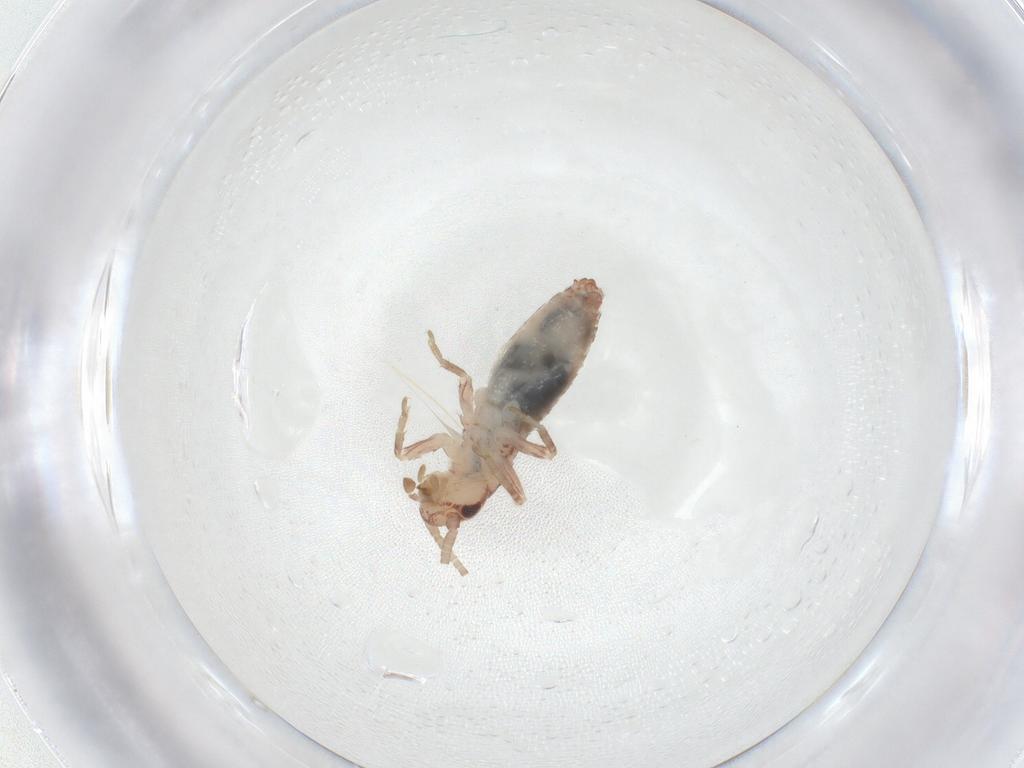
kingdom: Animalia
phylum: Arthropoda
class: Insecta
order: Orthoptera
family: Mogoplistidae
